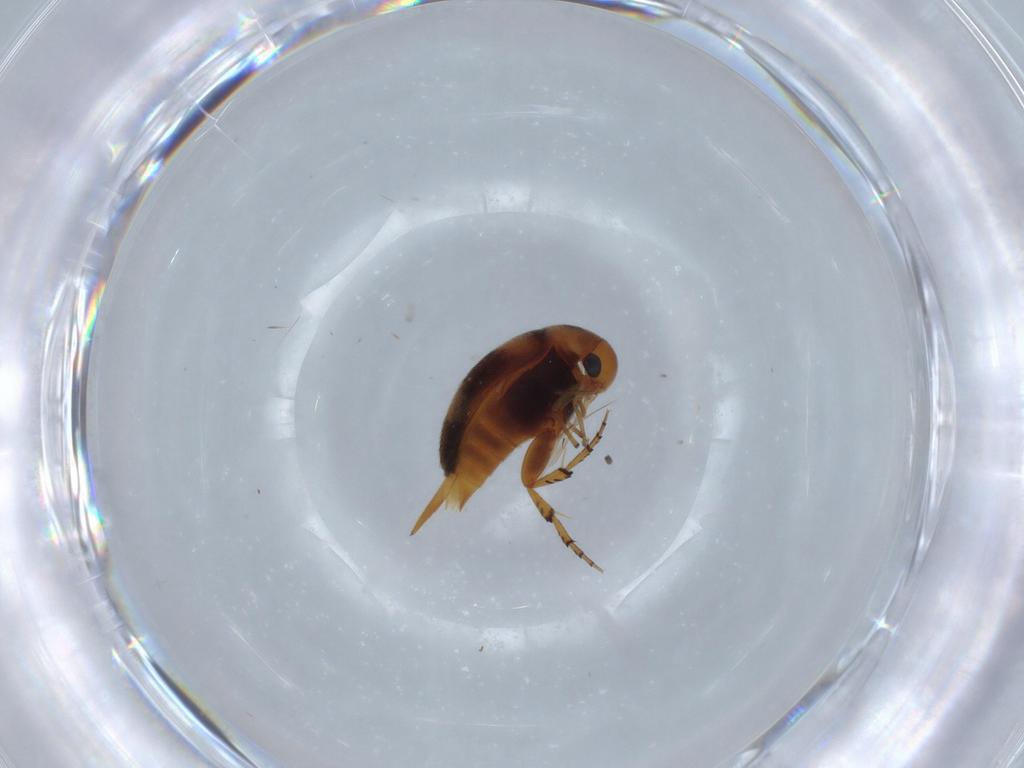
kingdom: Animalia
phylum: Arthropoda
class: Insecta
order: Coleoptera
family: Mordellidae
